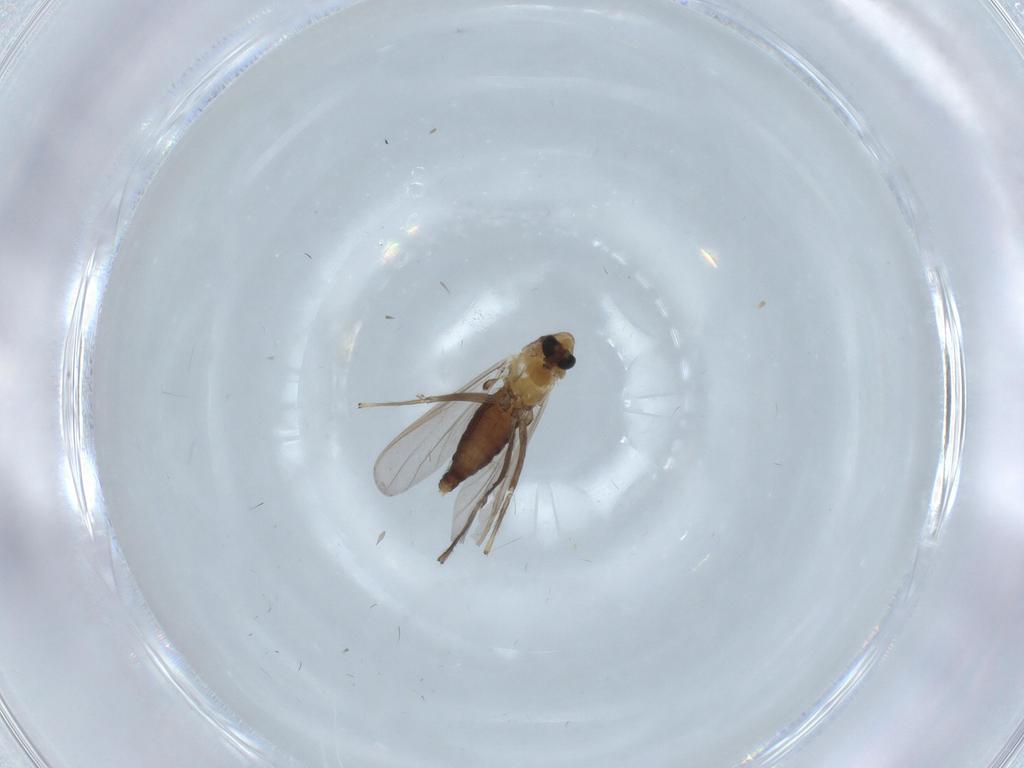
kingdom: Animalia
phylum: Arthropoda
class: Insecta
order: Diptera
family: Chironomidae
